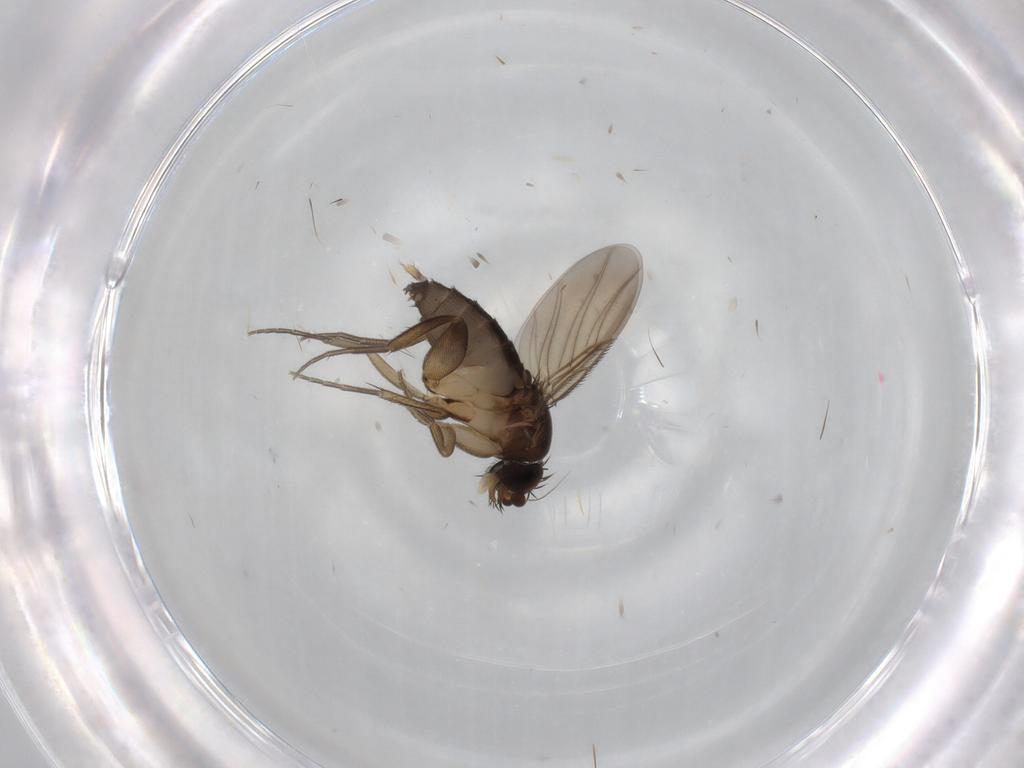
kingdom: Animalia
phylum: Arthropoda
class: Insecta
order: Diptera
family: Phoridae
